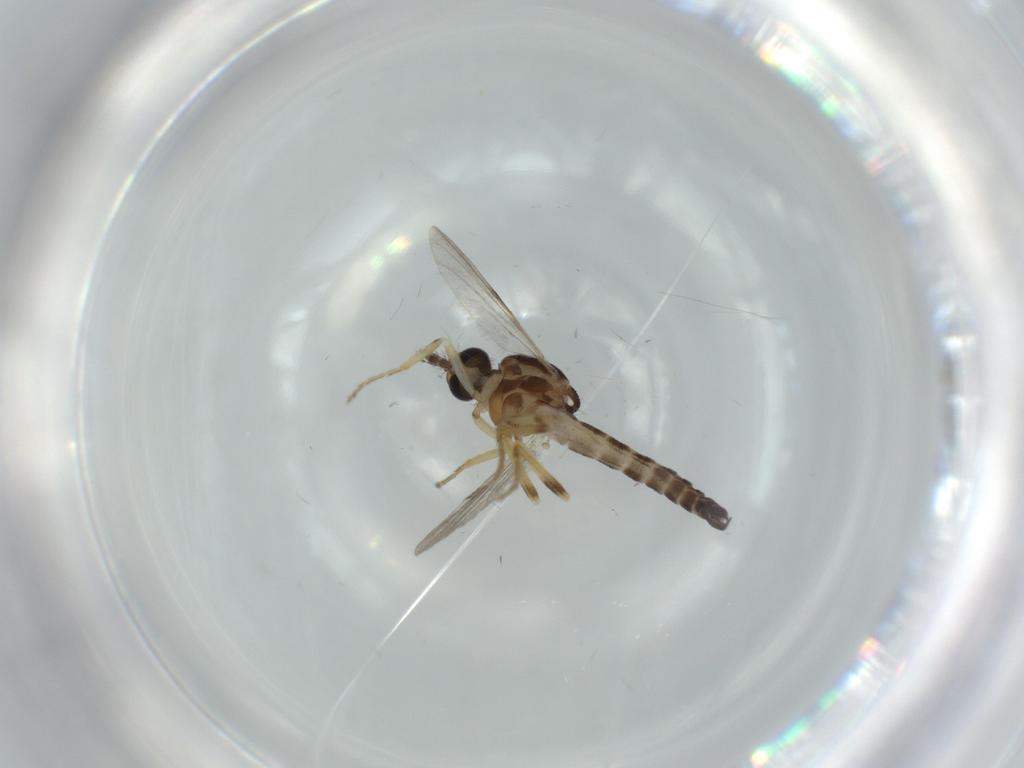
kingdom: Animalia
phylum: Arthropoda
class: Insecta
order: Diptera
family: Ceratopogonidae
